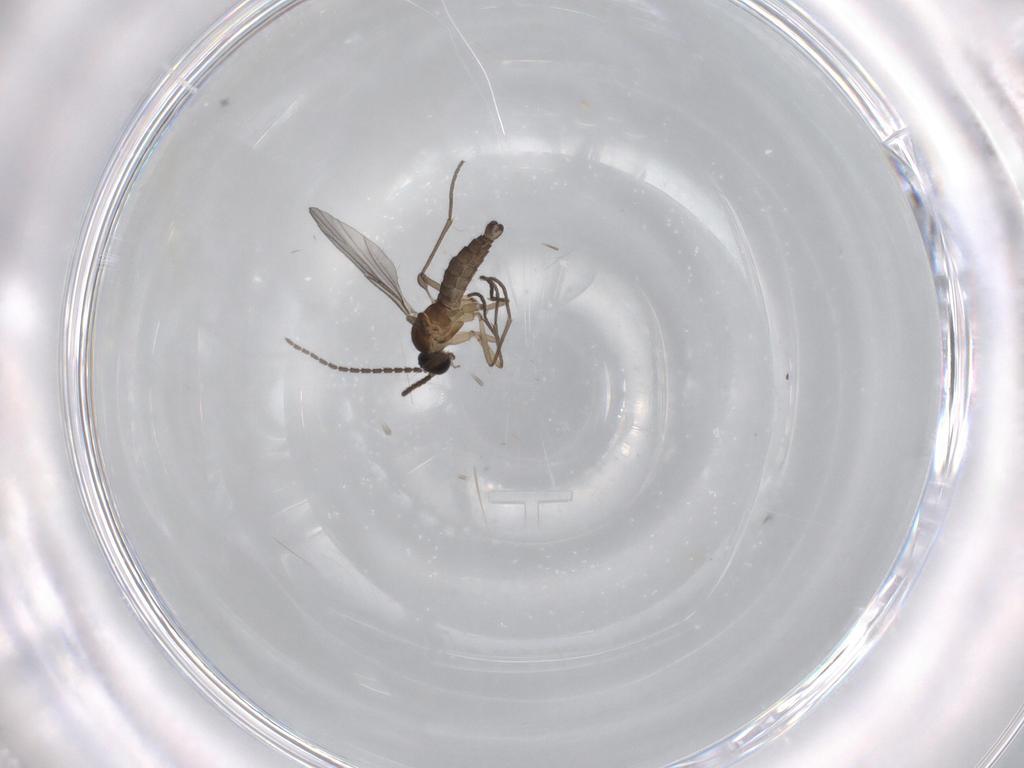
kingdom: Animalia
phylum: Arthropoda
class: Insecta
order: Diptera
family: Sciaridae
